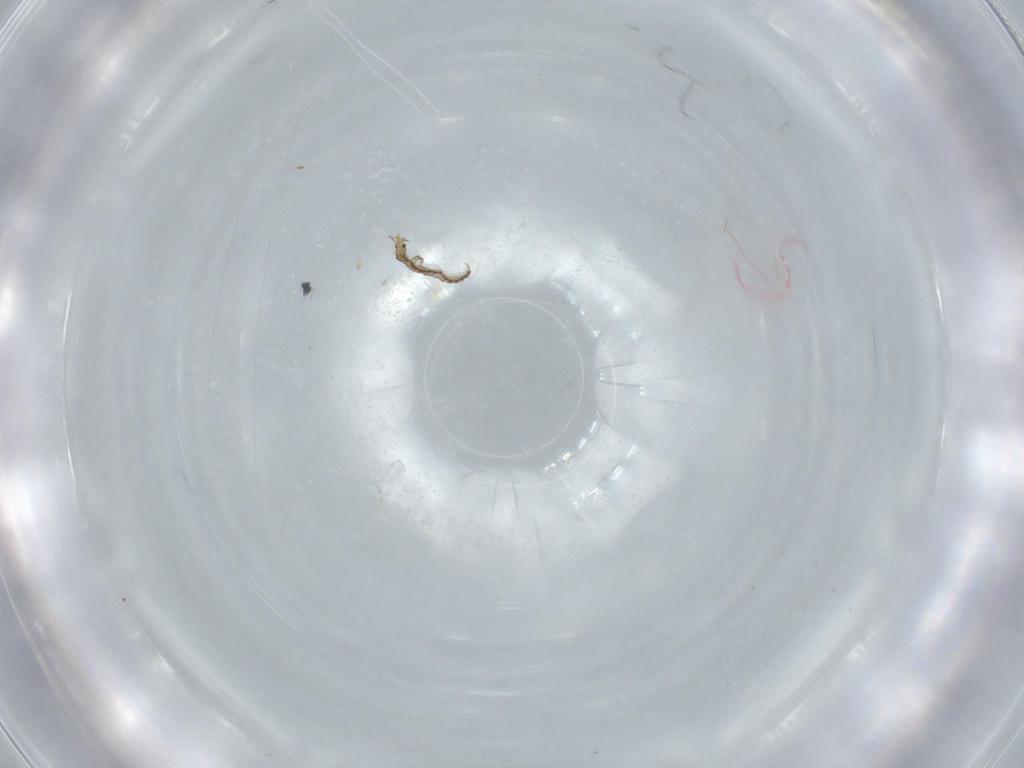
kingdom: Animalia
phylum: Arthropoda
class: Insecta
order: Neuroptera
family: Mantispidae
